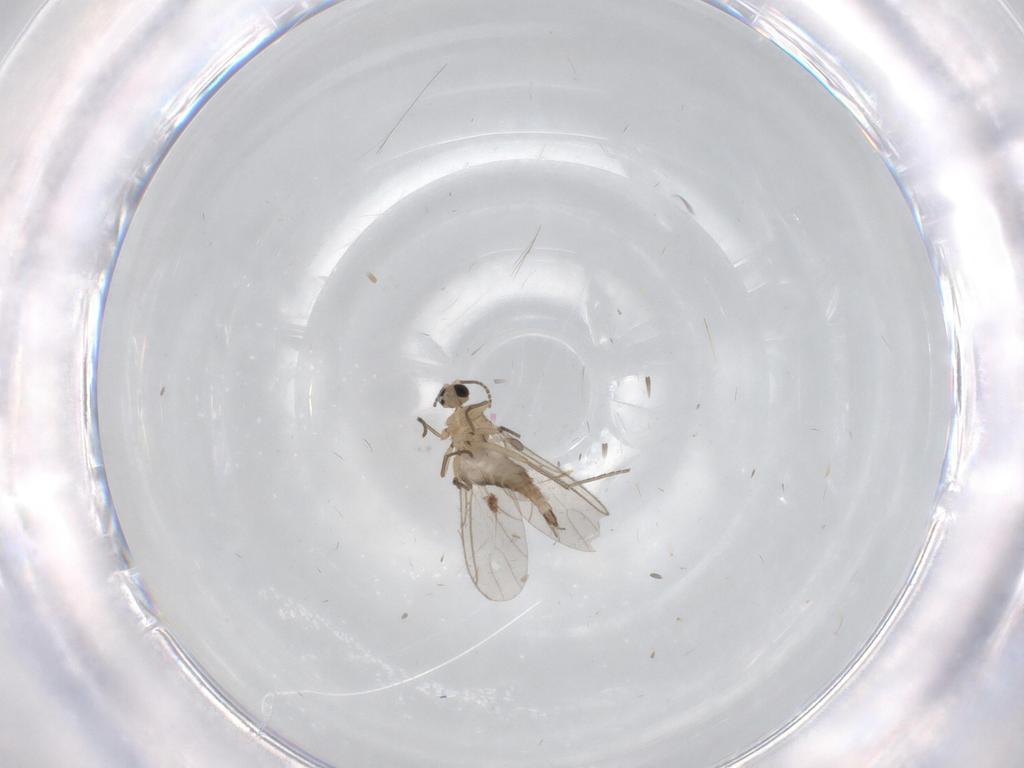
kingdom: Animalia
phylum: Arthropoda
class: Insecta
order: Diptera
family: Sciaridae
